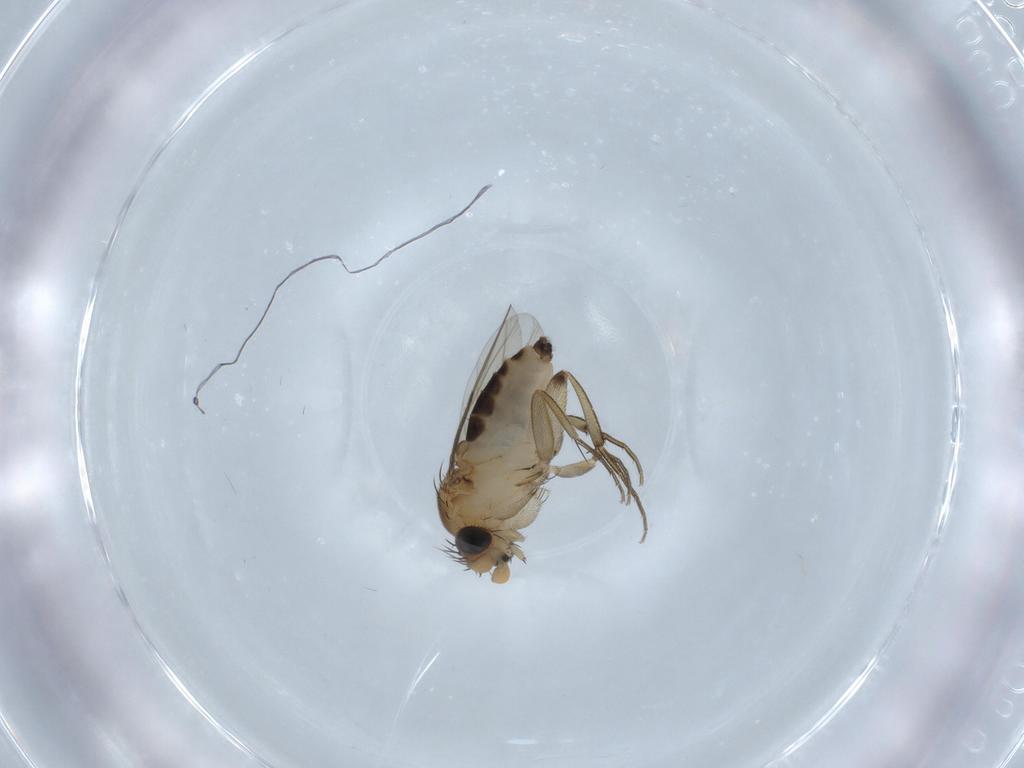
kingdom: Animalia
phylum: Arthropoda
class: Insecta
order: Diptera
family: Phoridae
